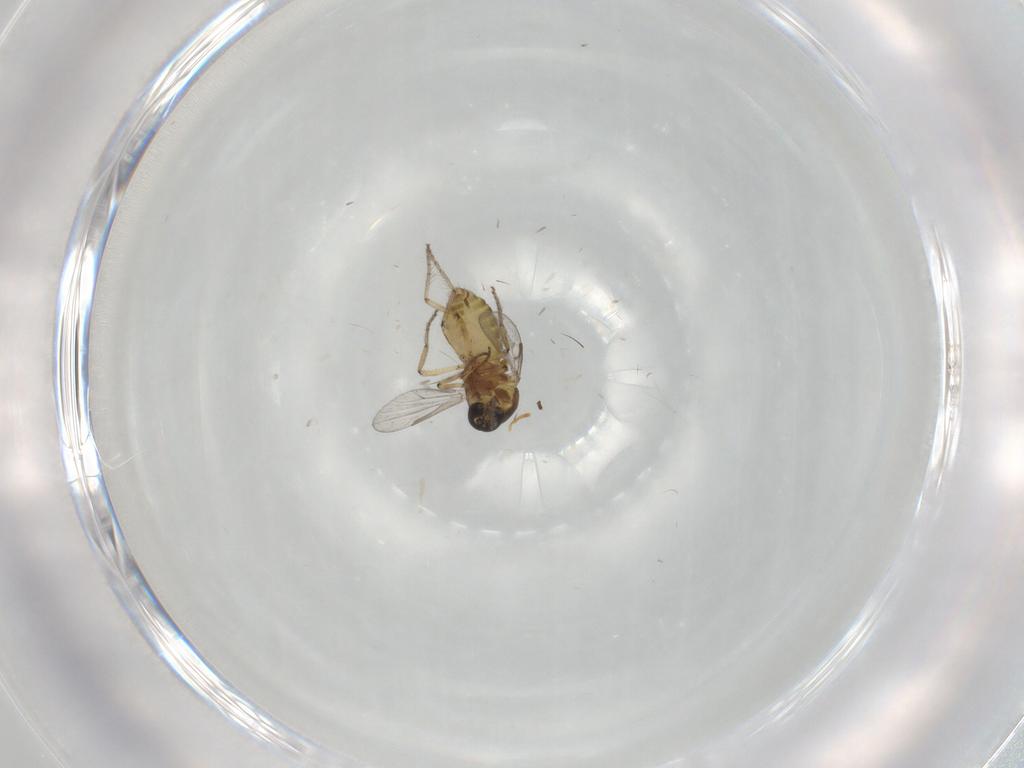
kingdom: Animalia
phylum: Arthropoda
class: Insecta
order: Diptera
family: Ceratopogonidae
